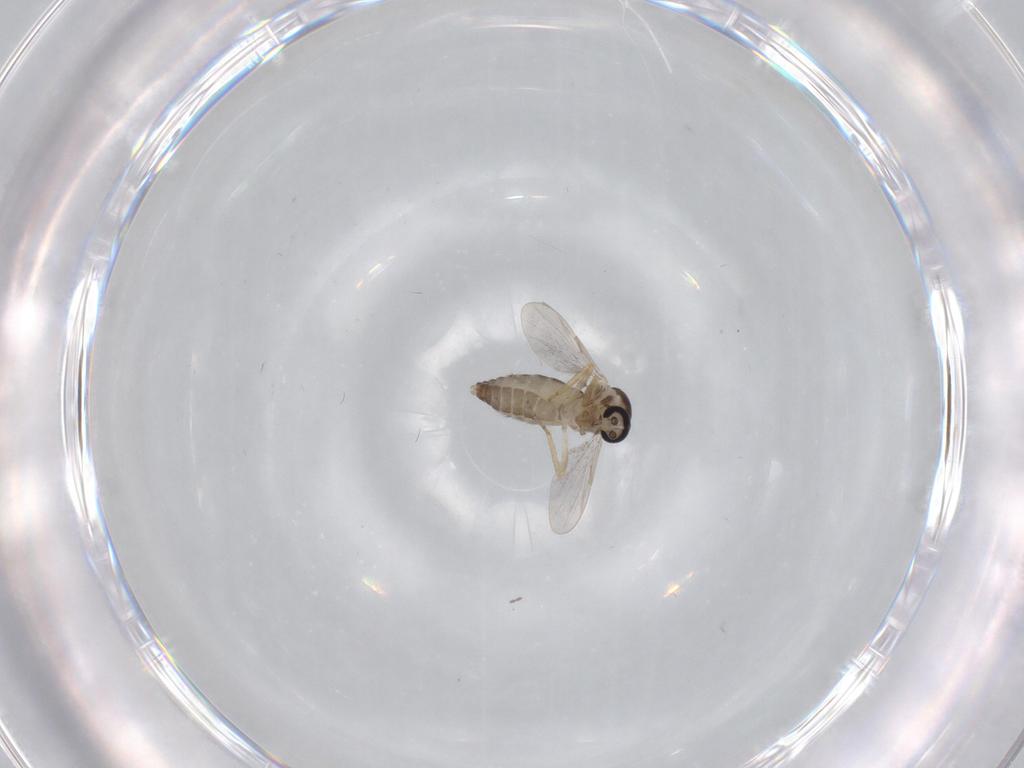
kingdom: Animalia
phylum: Arthropoda
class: Insecta
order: Diptera
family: Ceratopogonidae
